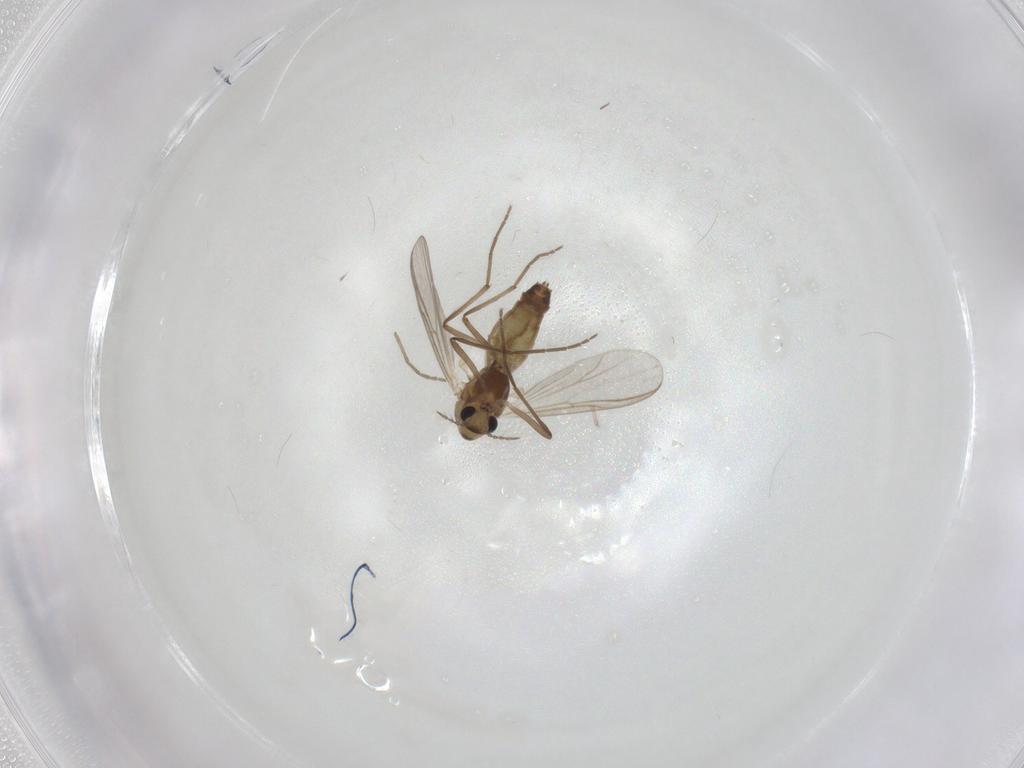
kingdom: Animalia
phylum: Arthropoda
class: Insecta
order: Diptera
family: Chironomidae
